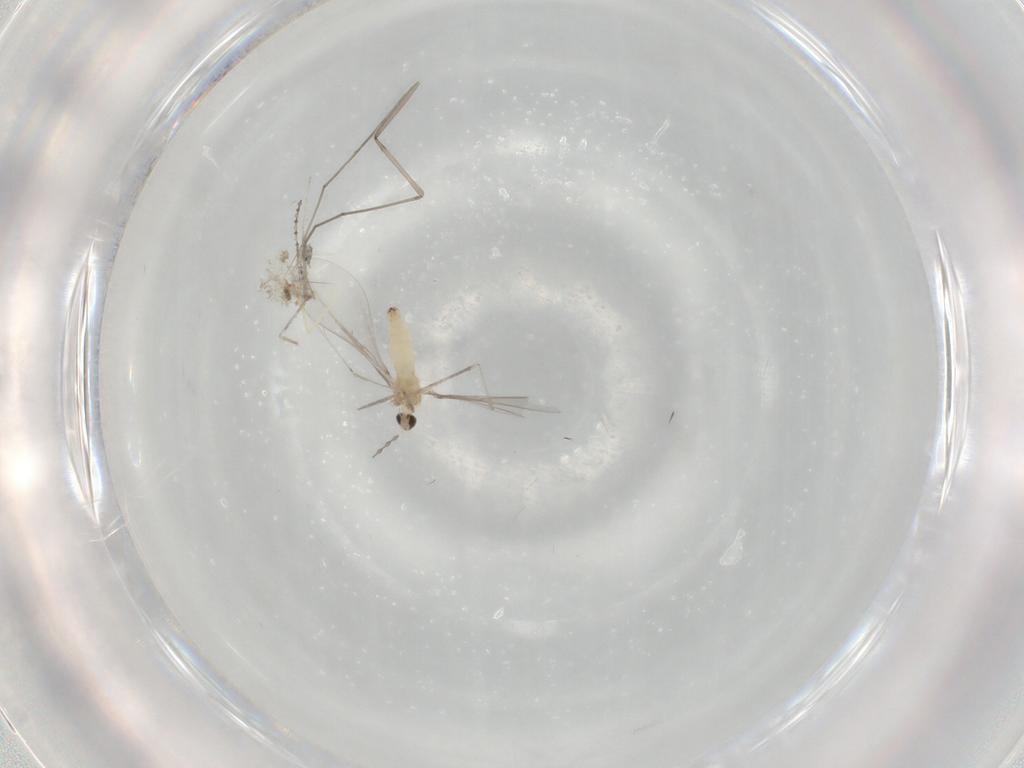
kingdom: Animalia
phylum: Arthropoda
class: Insecta
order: Diptera
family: Cecidomyiidae
